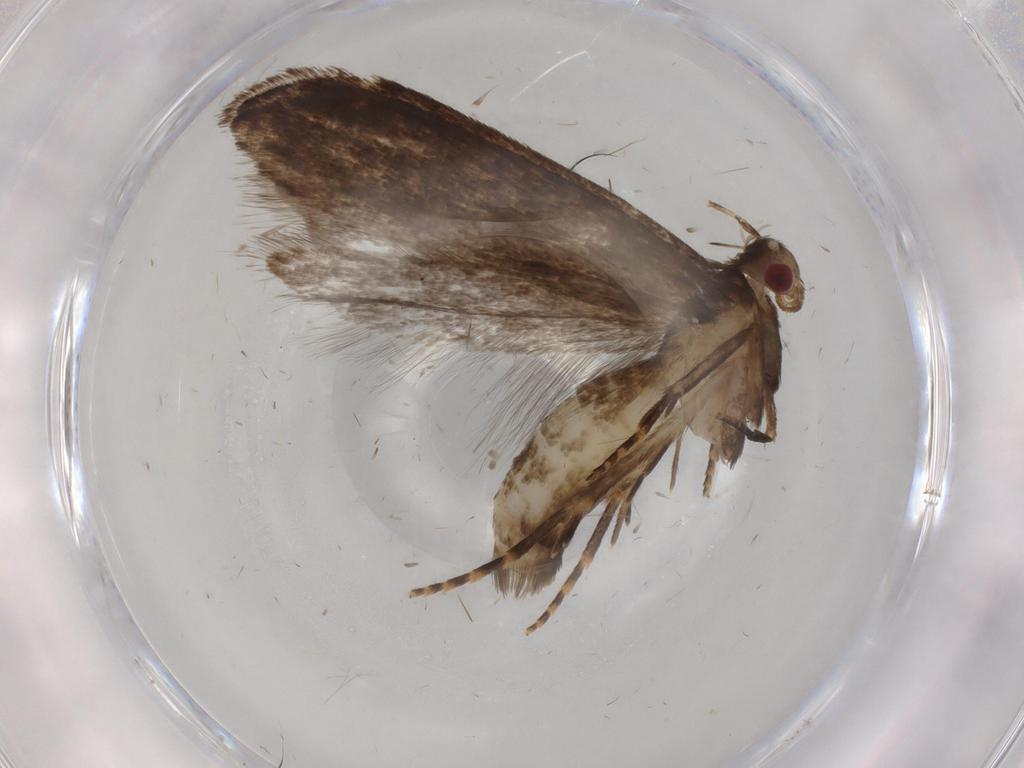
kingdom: Animalia
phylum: Arthropoda
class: Insecta
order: Lepidoptera
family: Gelechiidae
